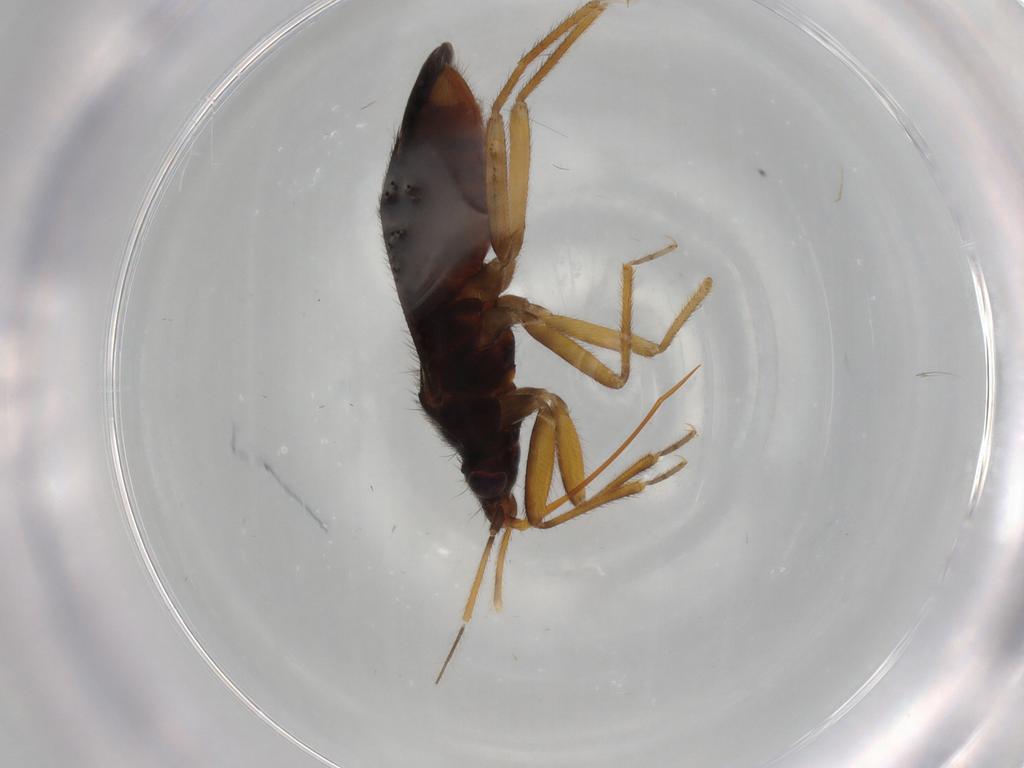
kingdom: Animalia
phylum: Arthropoda
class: Insecta
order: Hemiptera
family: Anthocoridae
